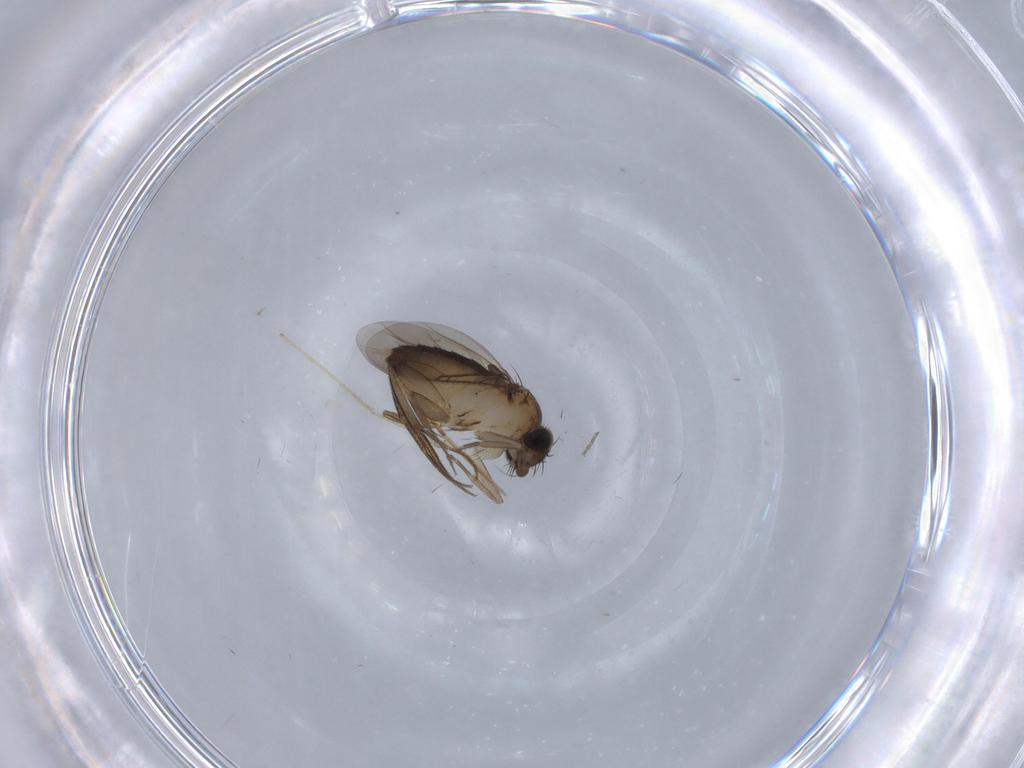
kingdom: Animalia
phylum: Arthropoda
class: Insecta
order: Diptera
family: Phoridae
